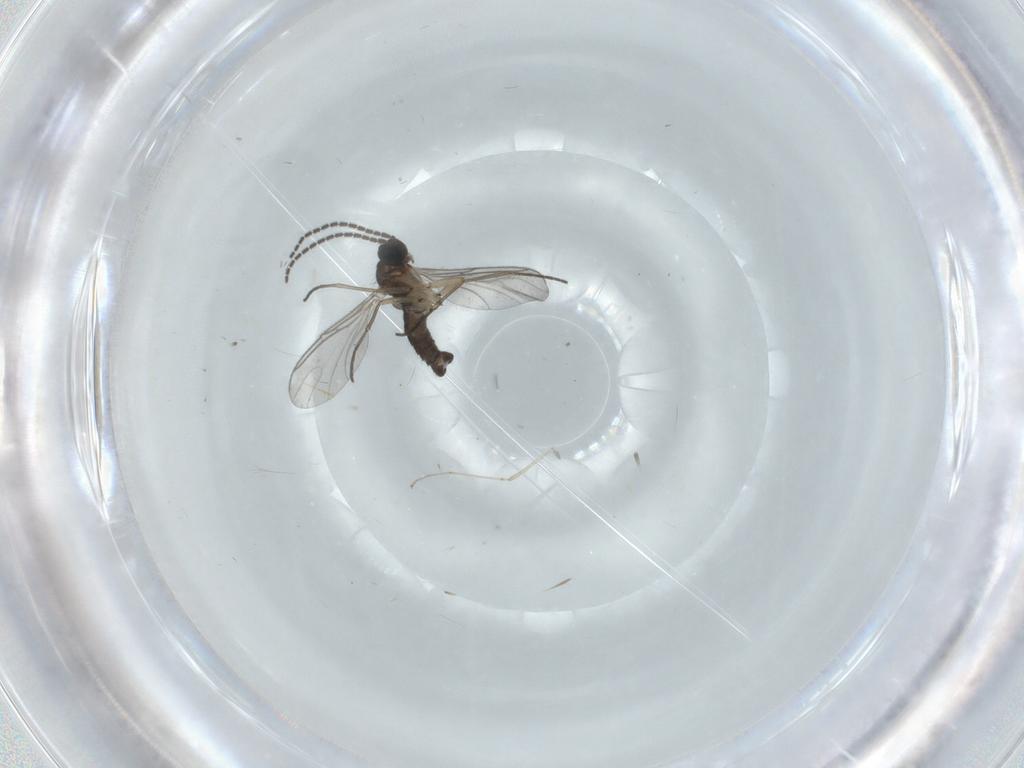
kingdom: Animalia
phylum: Arthropoda
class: Insecta
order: Diptera
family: Sciaridae
